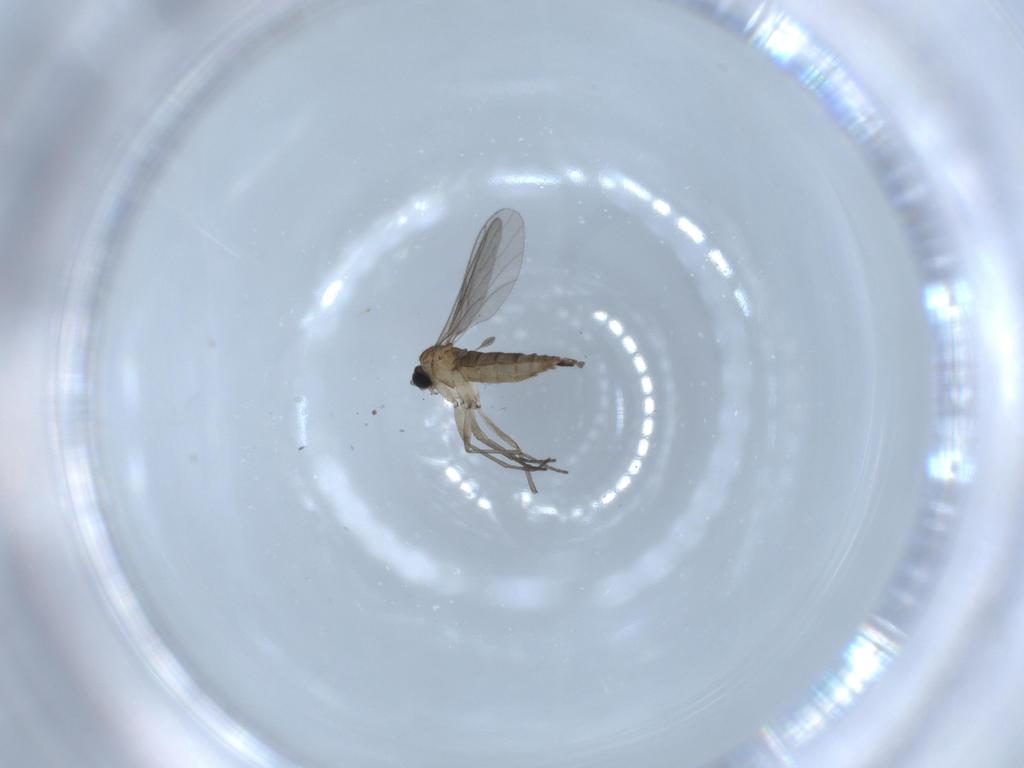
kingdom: Animalia
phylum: Arthropoda
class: Insecta
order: Diptera
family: Sciaridae
